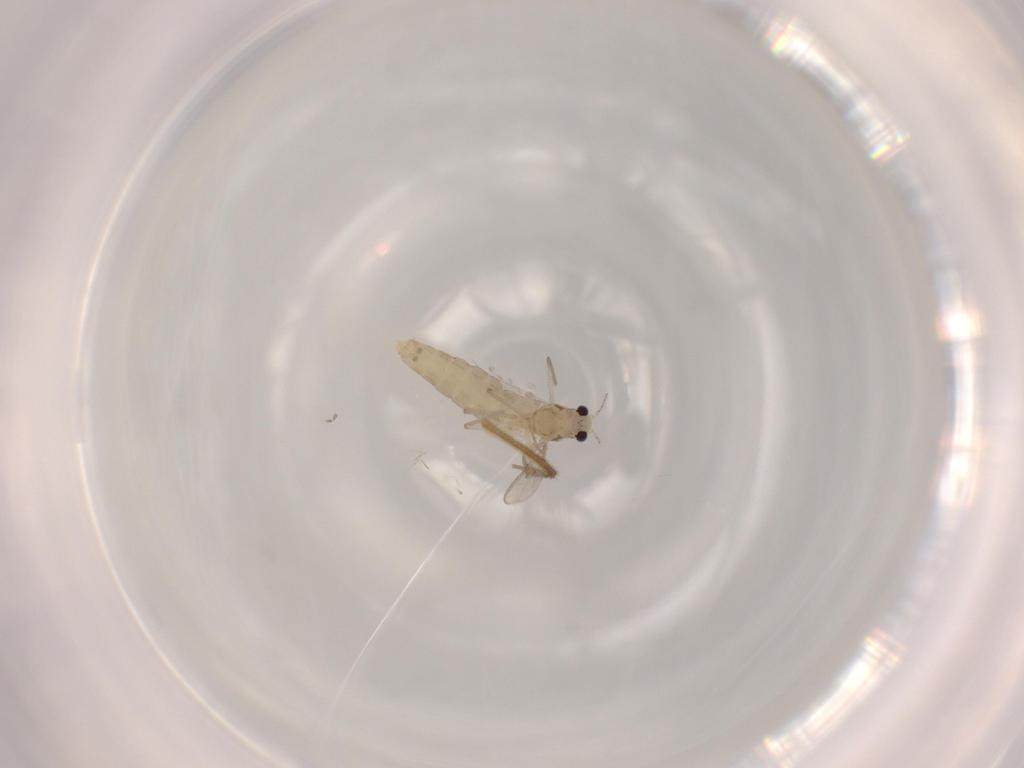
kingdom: Animalia
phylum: Arthropoda
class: Insecta
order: Diptera
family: Chironomidae
